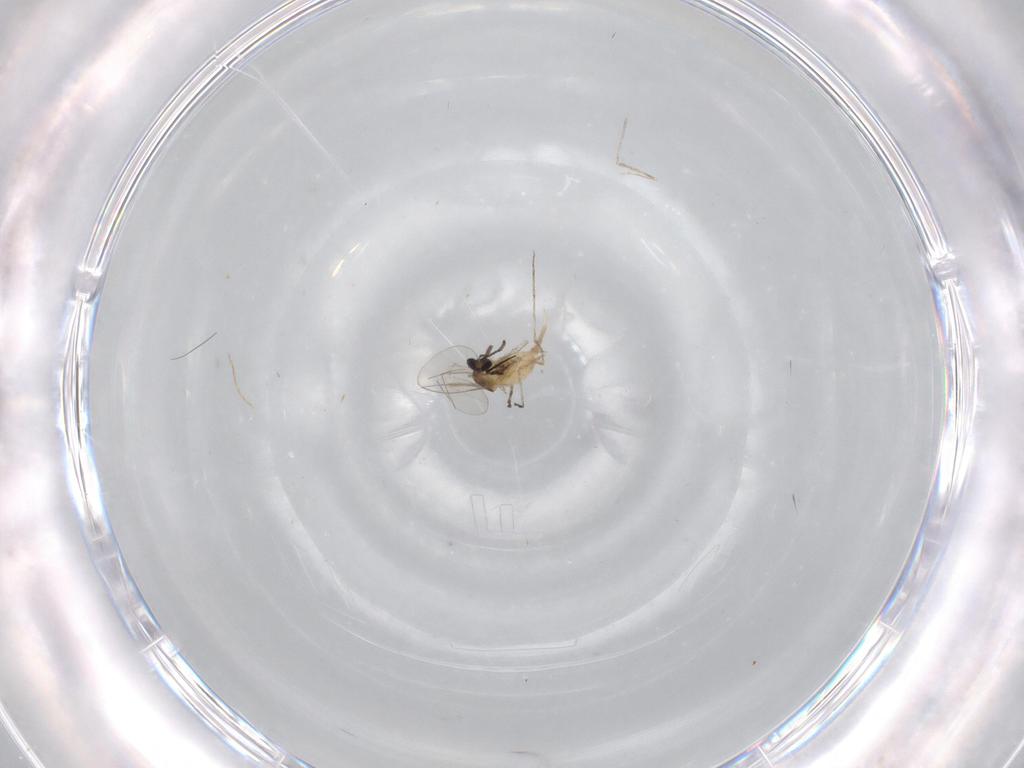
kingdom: Animalia
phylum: Arthropoda
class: Insecta
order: Diptera
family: Cecidomyiidae
